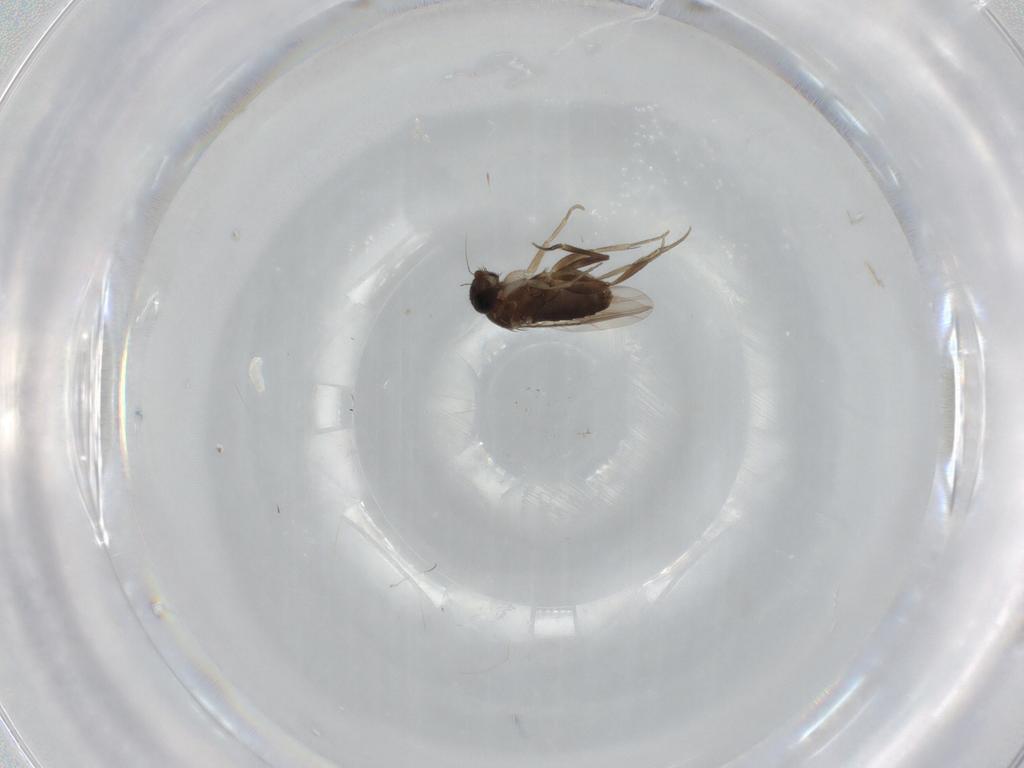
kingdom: Animalia
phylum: Arthropoda
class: Insecta
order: Diptera
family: Phoridae
